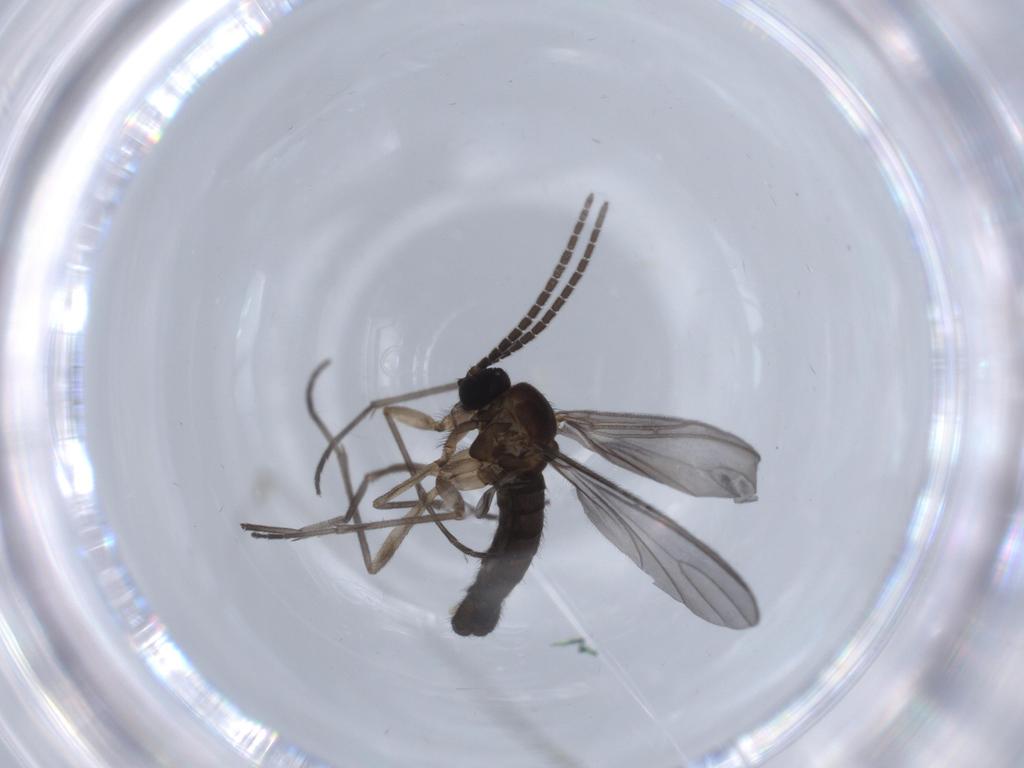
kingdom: Animalia
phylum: Arthropoda
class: Insecta
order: Diptera
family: Sciaridae
